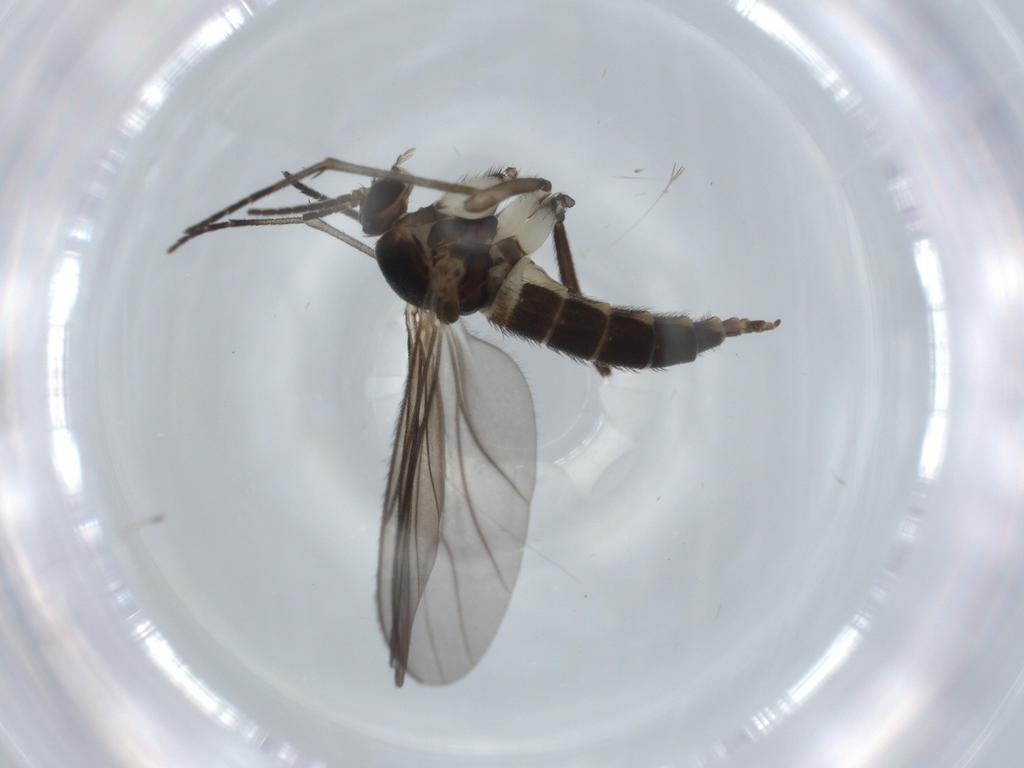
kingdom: Animalia
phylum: Arthropoda
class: Insecta
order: Diptera
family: Sciaridae
